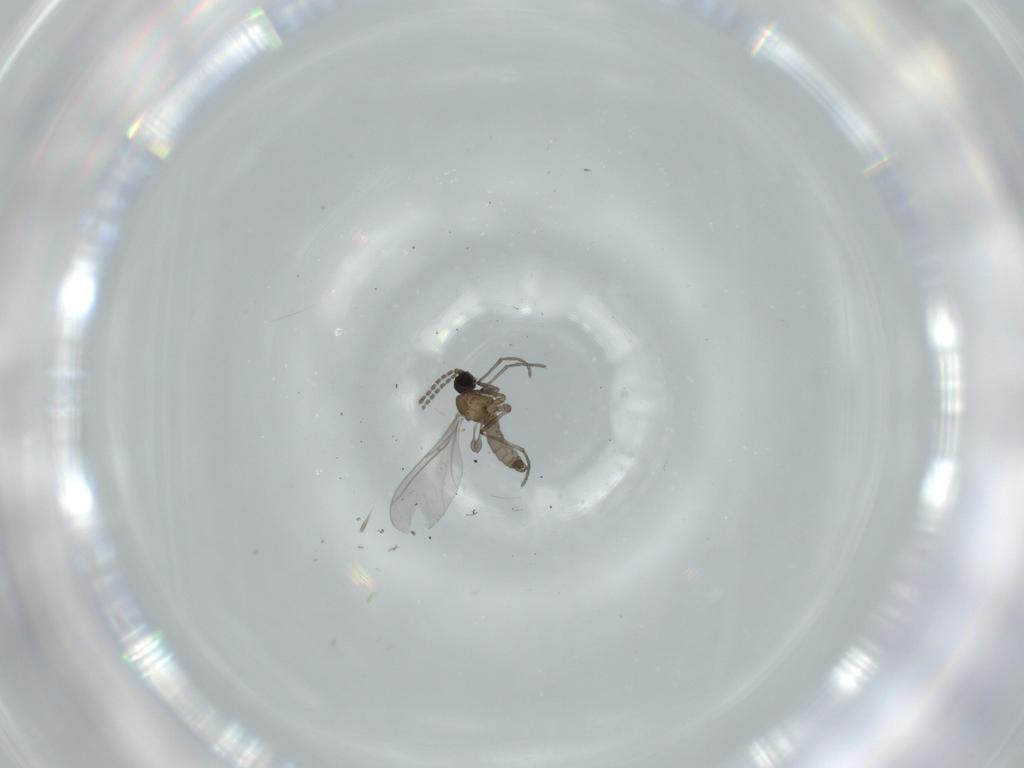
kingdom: Animalia
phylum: Arthropoda
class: Insecta
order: Diptera
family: Sciaridae
